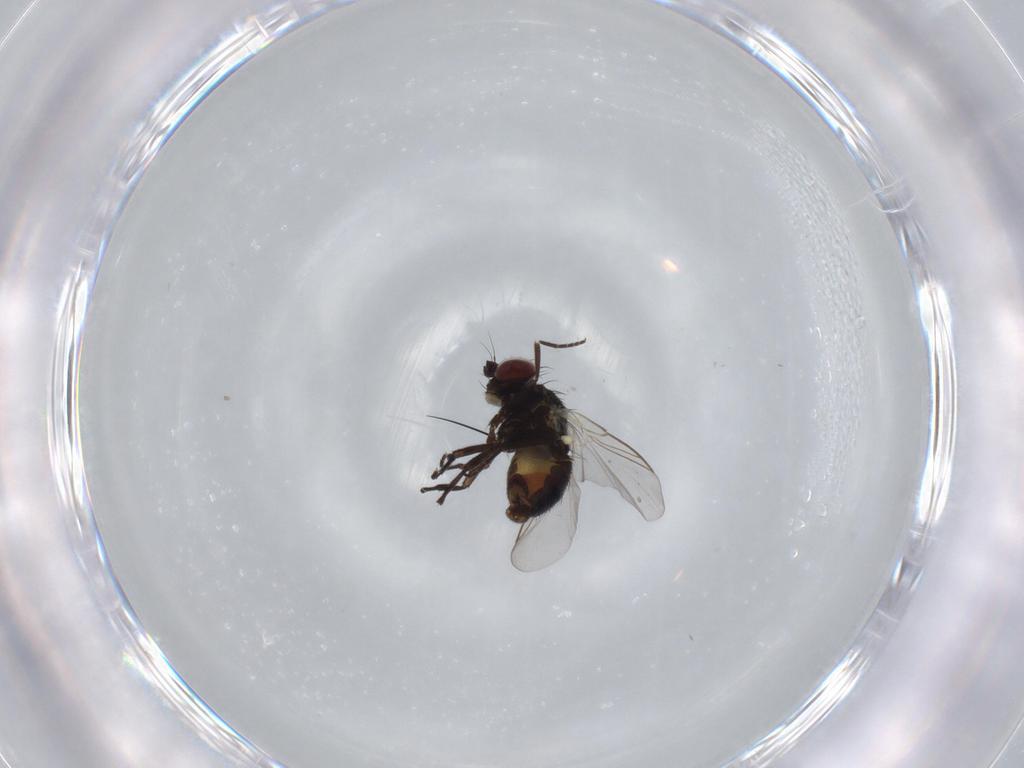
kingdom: Animalia
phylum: Arthropoda
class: Insecta
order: Diptera
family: Agromyzidae
